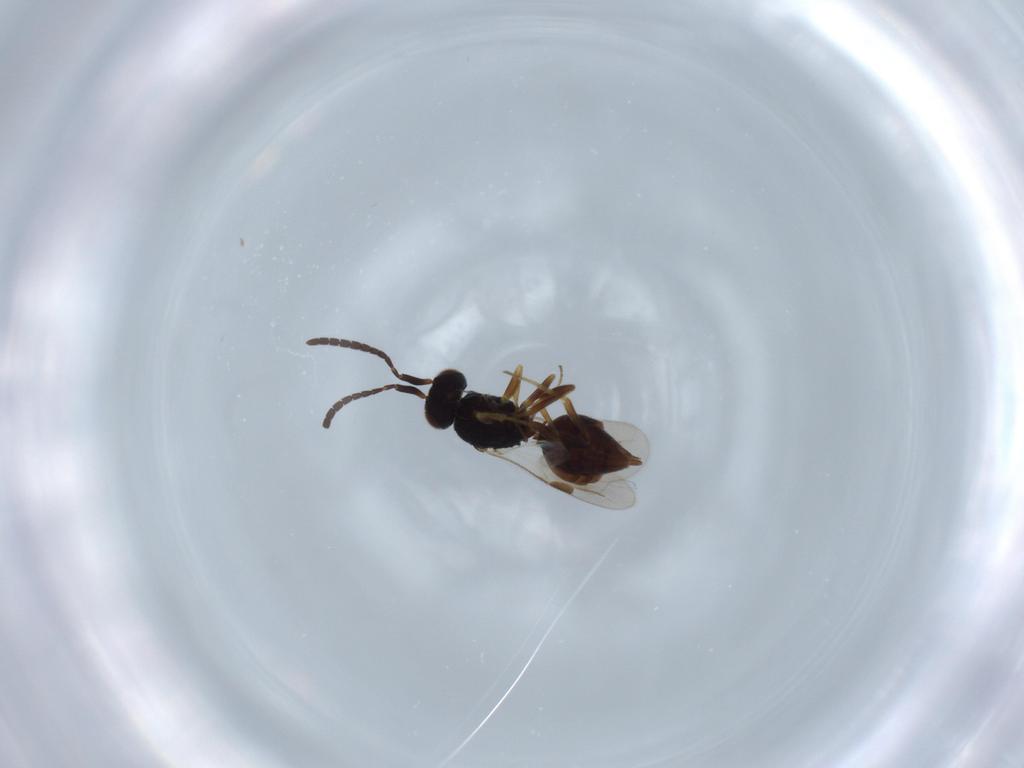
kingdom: Animalia
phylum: Arthropoda
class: Insecta
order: Hymenoptera
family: Megaspilidae
